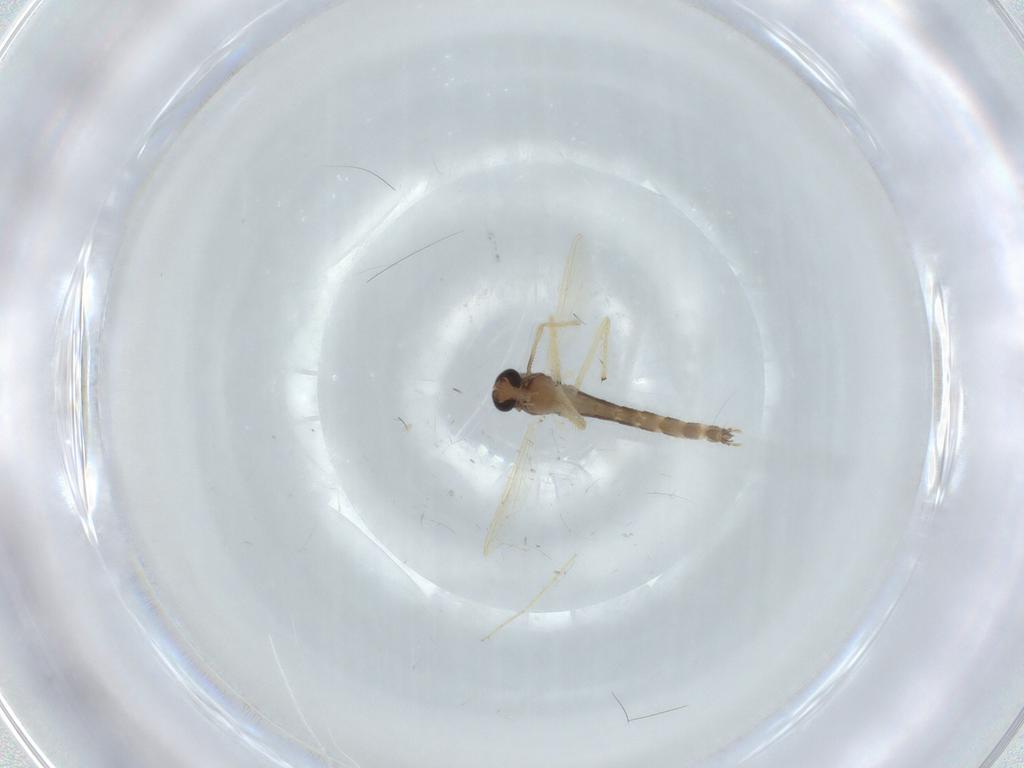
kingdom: Animalia
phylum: Arthropoda
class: Insecta
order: Diptera
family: Chironomidae
